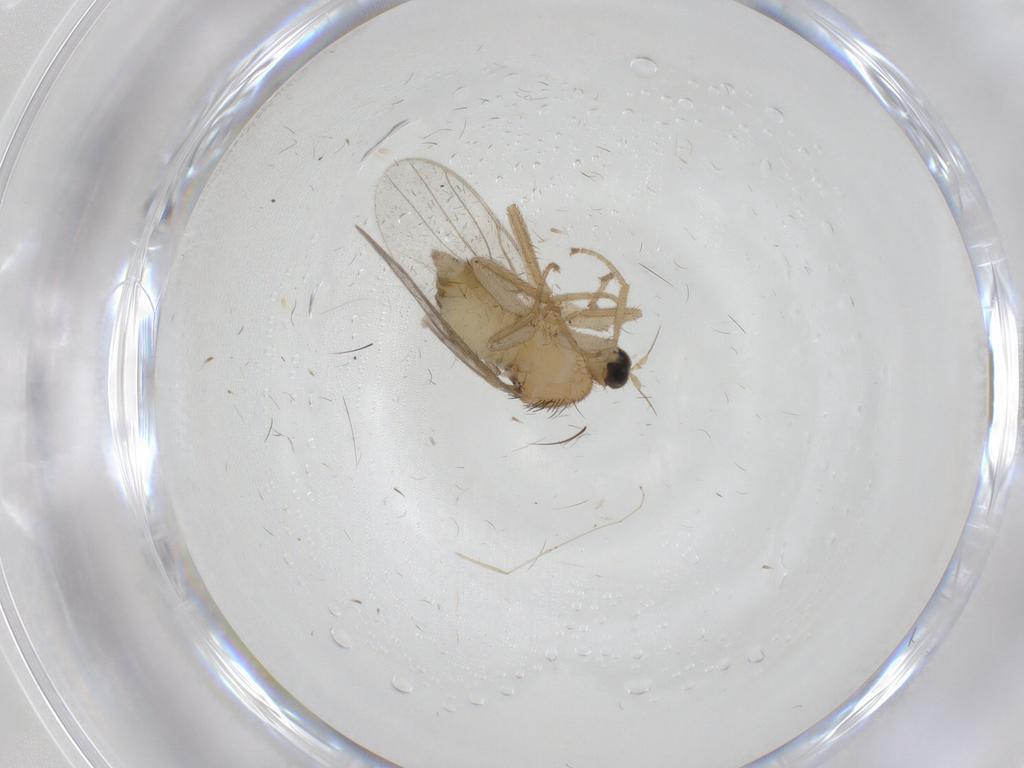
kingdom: Animalia
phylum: Arthropoda
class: Insecta
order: Diptera
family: Hybotidae
